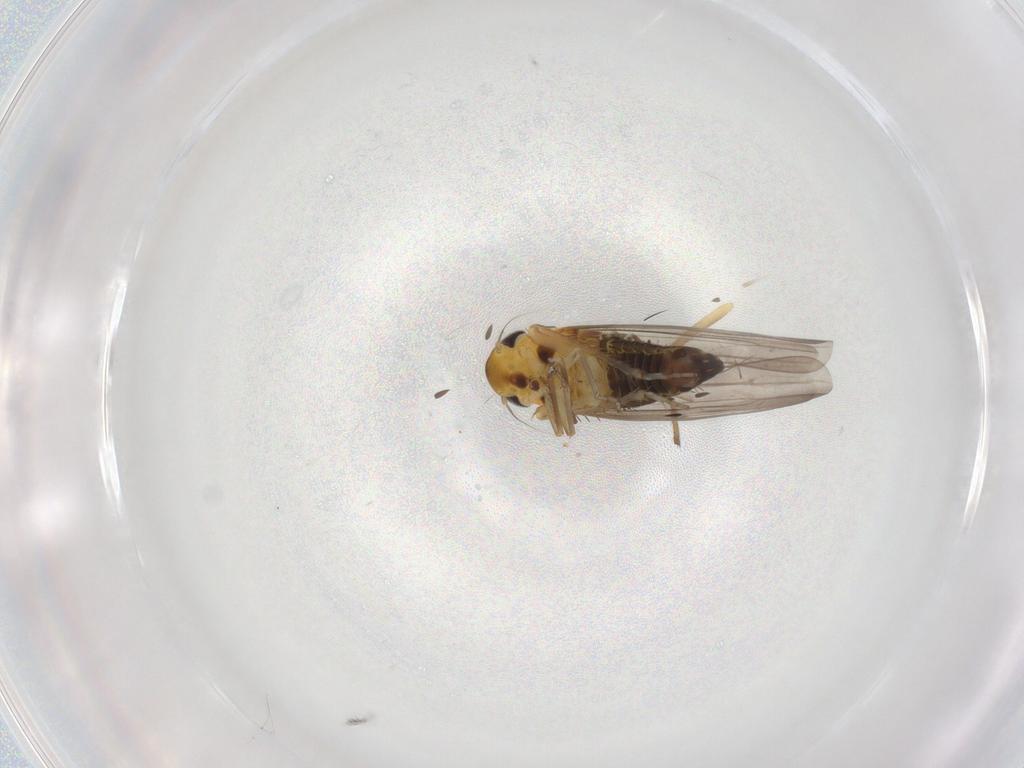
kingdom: Animalia
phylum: Arthropoda
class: Insecta
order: Hemiptera
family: Cicadellidae
